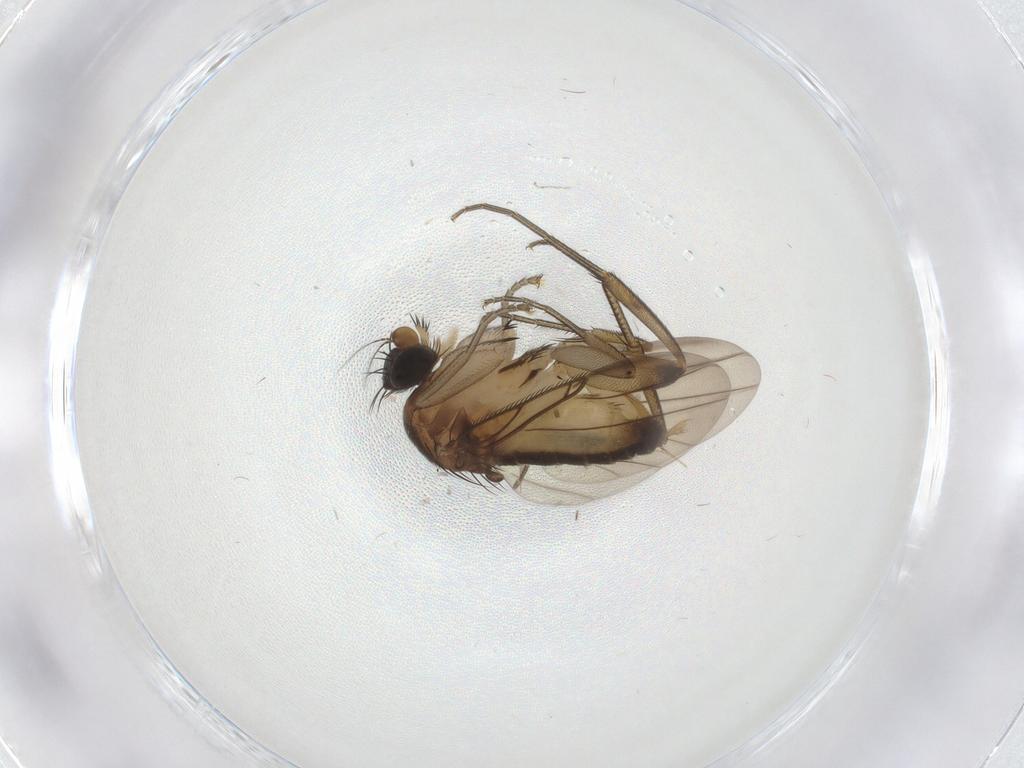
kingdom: Animalia
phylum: Arthropoda
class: Insecta
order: Diptera
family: Phoridae
